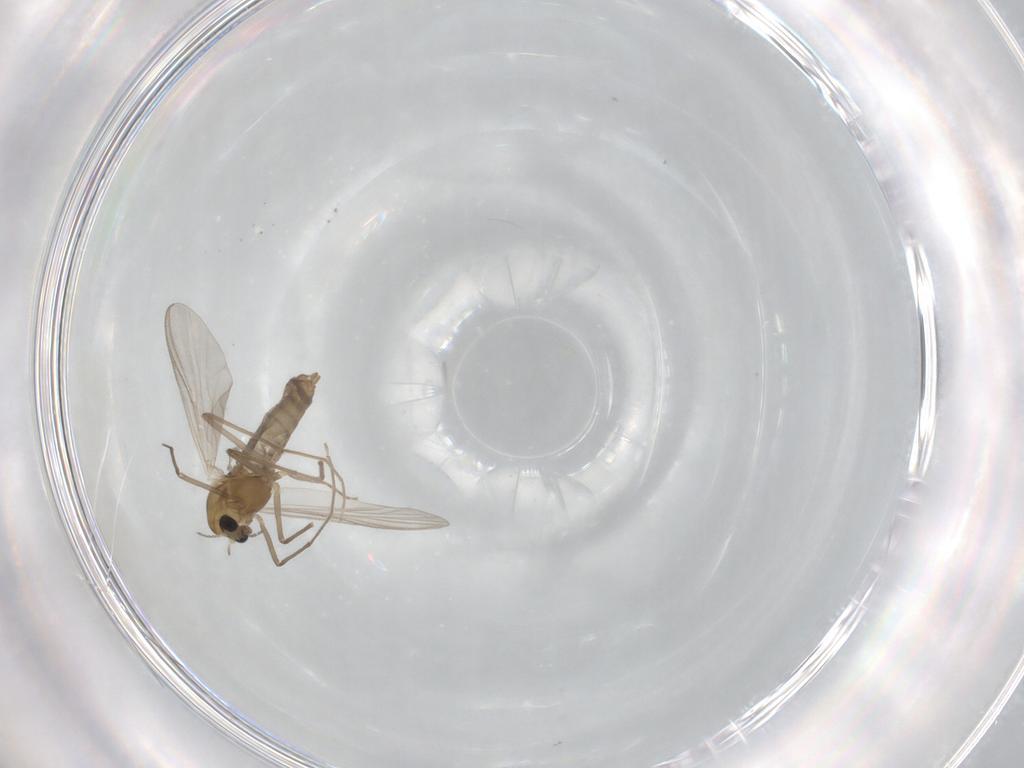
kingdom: Animalia
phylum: Arthropoda
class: Insecta
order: Diptera
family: Chironomidae
